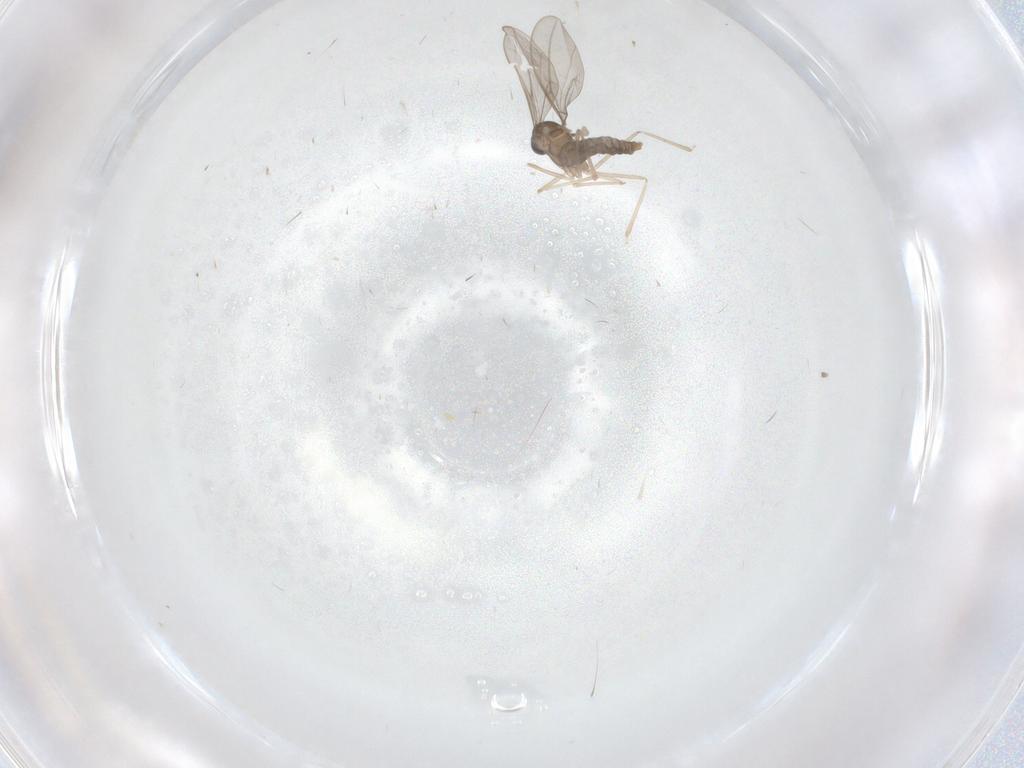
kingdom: Animalia
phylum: Arthropoda
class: Insecta
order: Diptera
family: Cecidomyiidae
